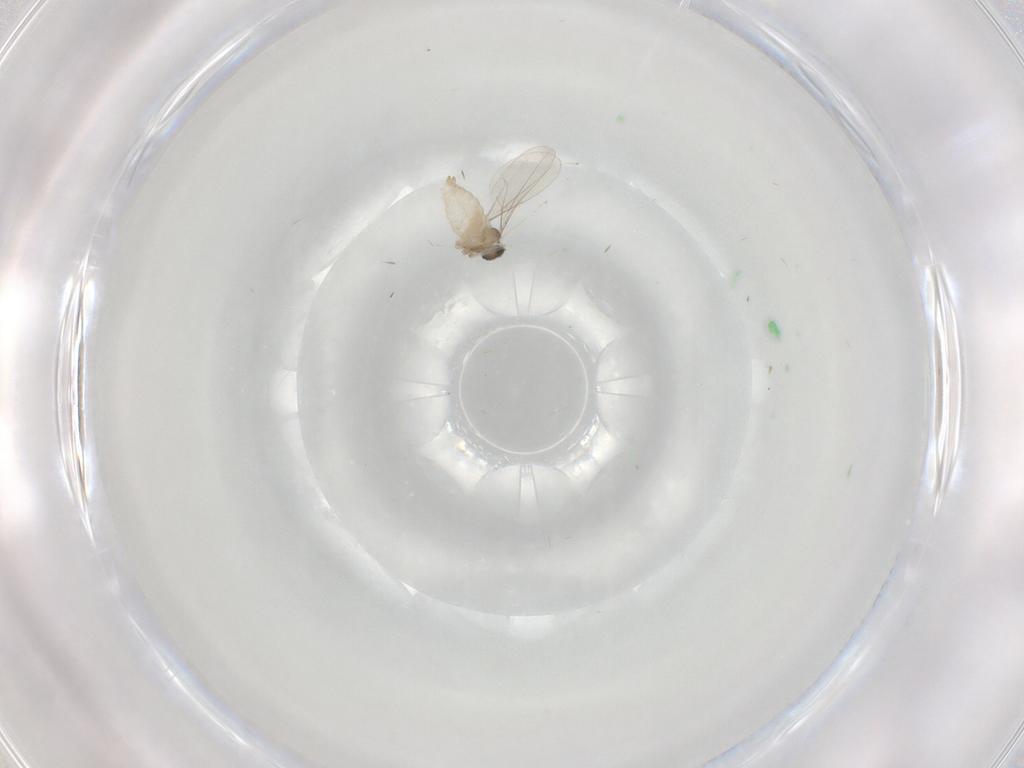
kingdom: Animalia
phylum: Arthropoda
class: Insecta
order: Diptera
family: Cecidomyiidae
